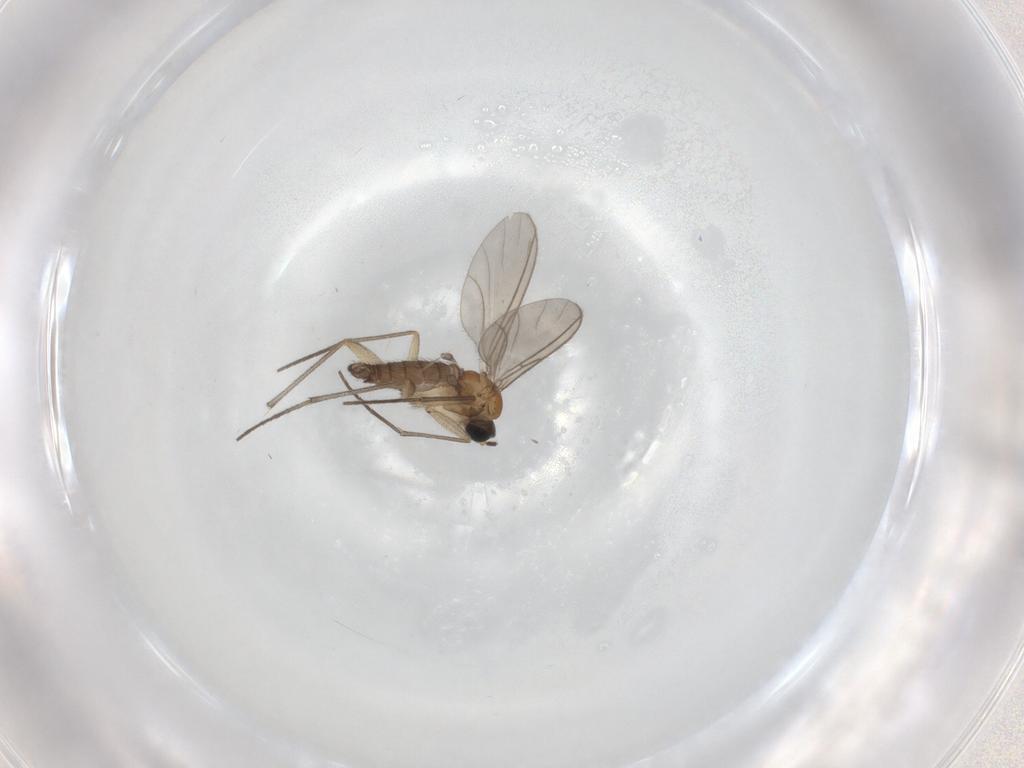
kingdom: Animalia
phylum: Arthropoda
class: Insecta
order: Diptera
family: Sciaridae
